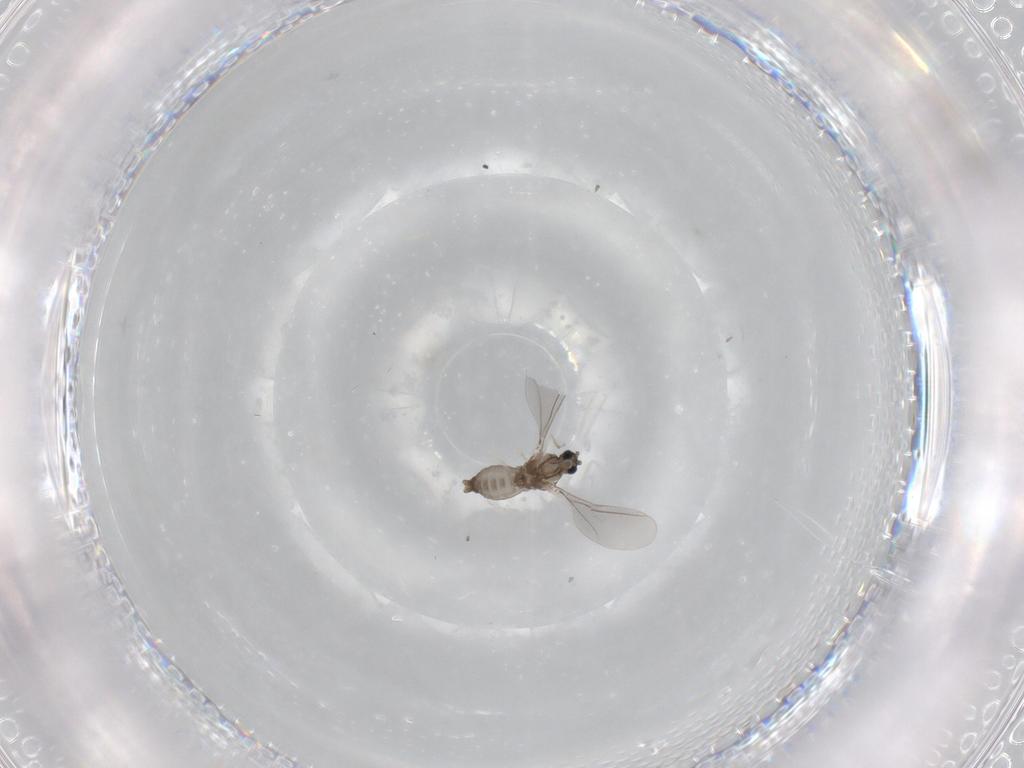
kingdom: Animalia
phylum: Arthropoda
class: Insecta
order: Diptera
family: Cecidomyiidae
